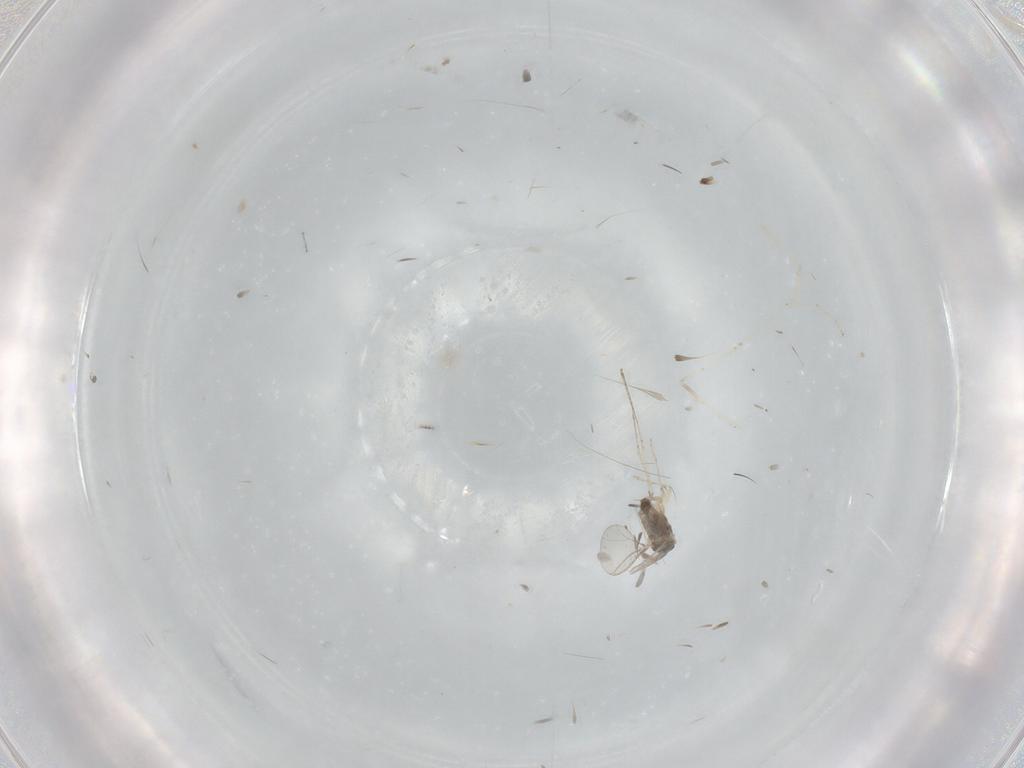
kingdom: Animalia
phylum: Arthropoda
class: Insecta
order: Diptera
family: Cecidomyiidae
